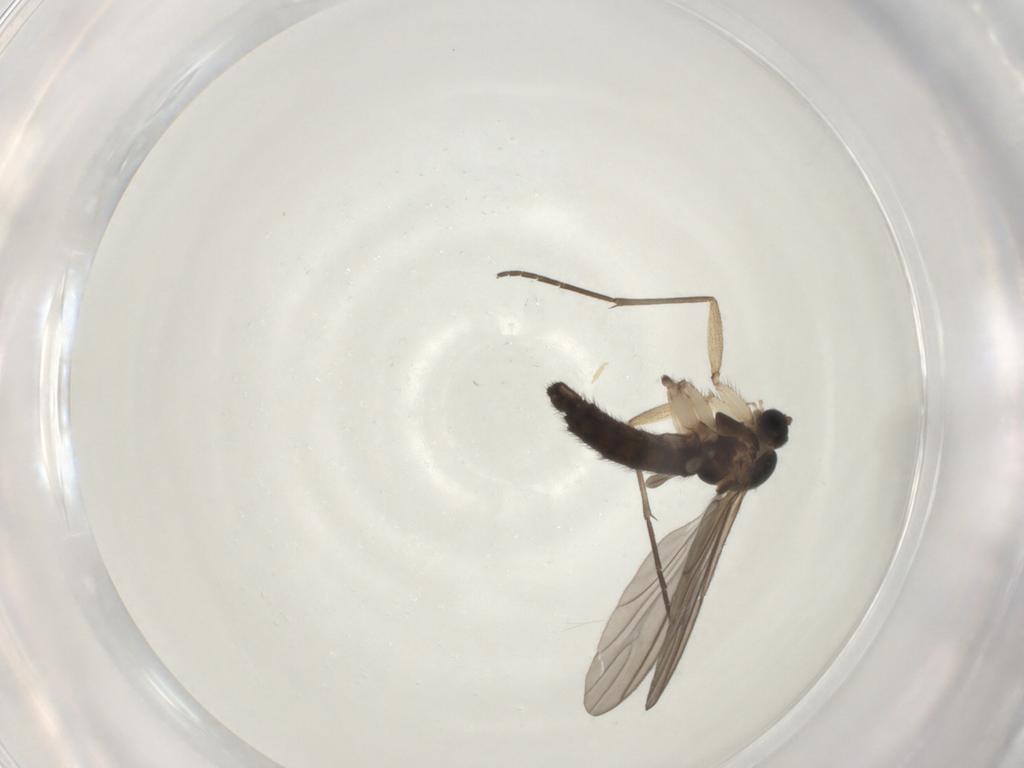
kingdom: Animalia
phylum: Arthropoda
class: Insecta
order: Diptera
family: Sciaridae
